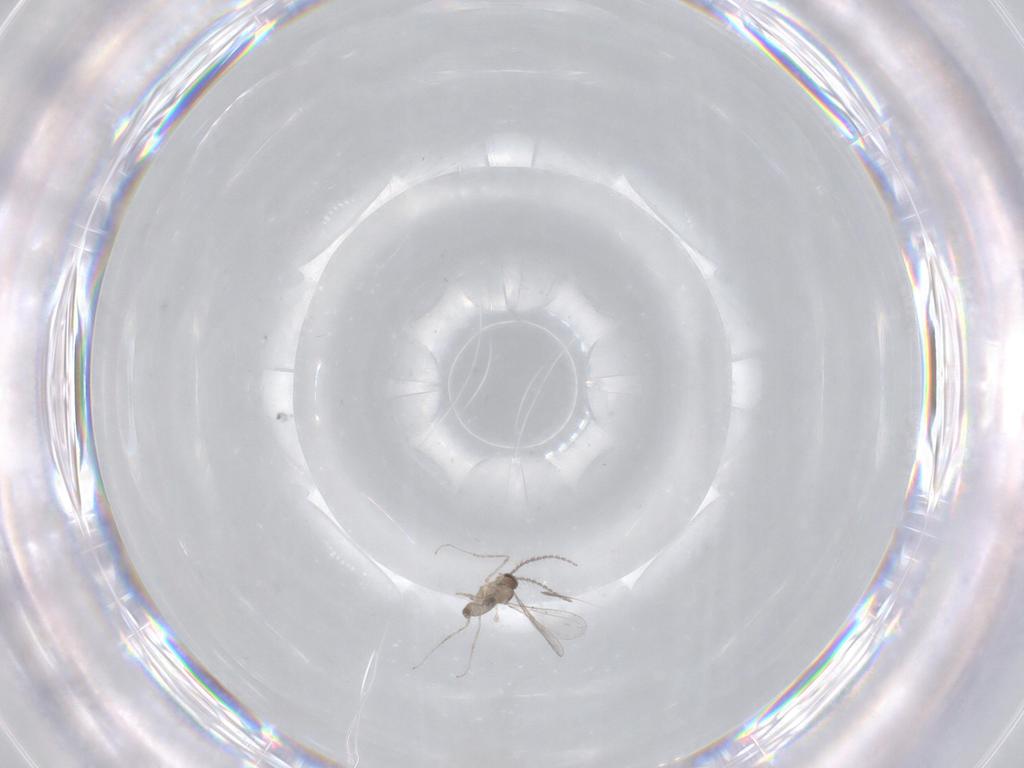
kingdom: Animalia
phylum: Arthropoda
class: Insecta
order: Diptera
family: Ceratopogonidae
